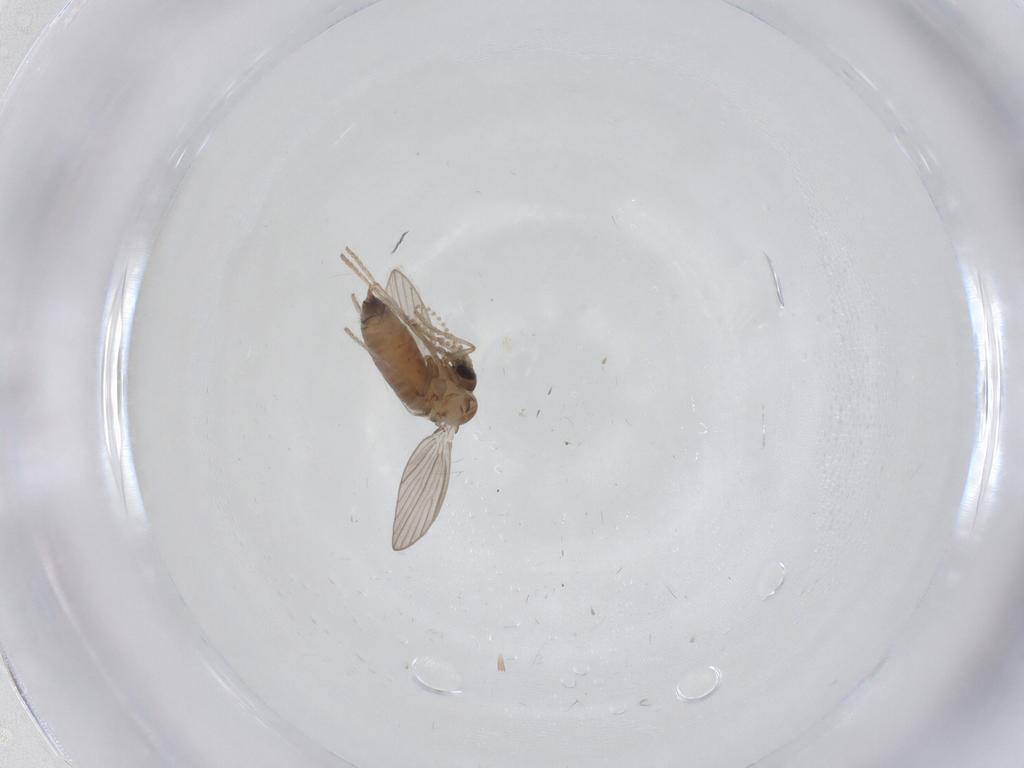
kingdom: Animalia
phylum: Arthropoda
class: Insecta
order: Diptera
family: Psychodidae
